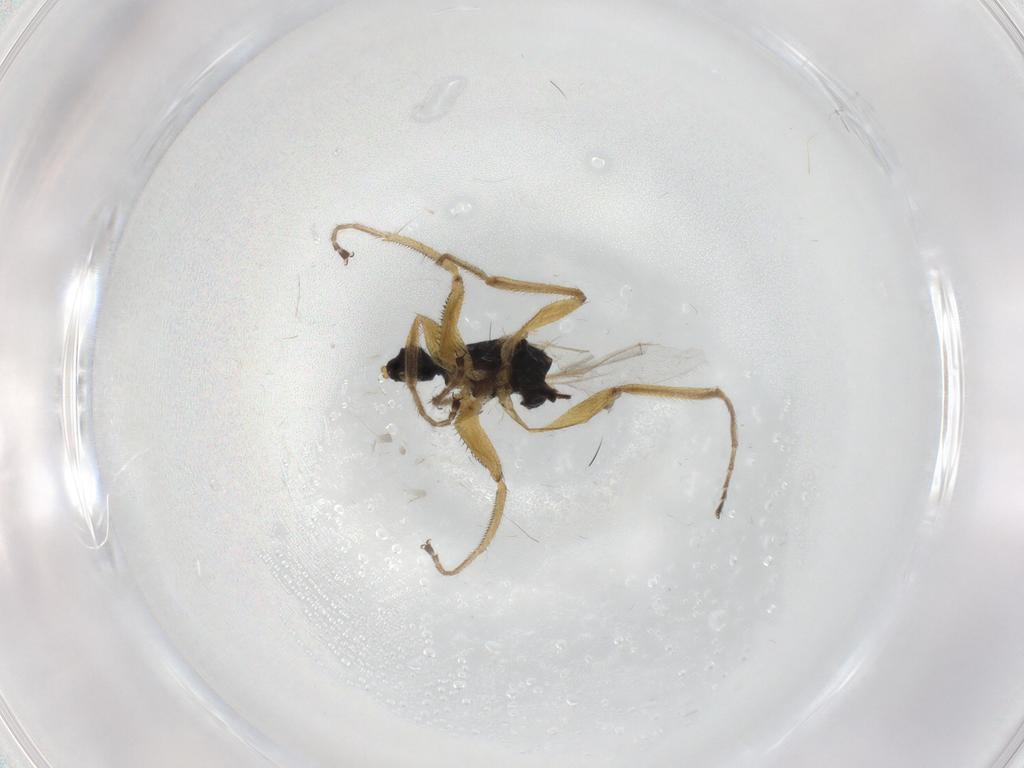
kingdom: Animalia
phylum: Arthropoda
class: Insecta
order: Diptera
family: Hybotidae
